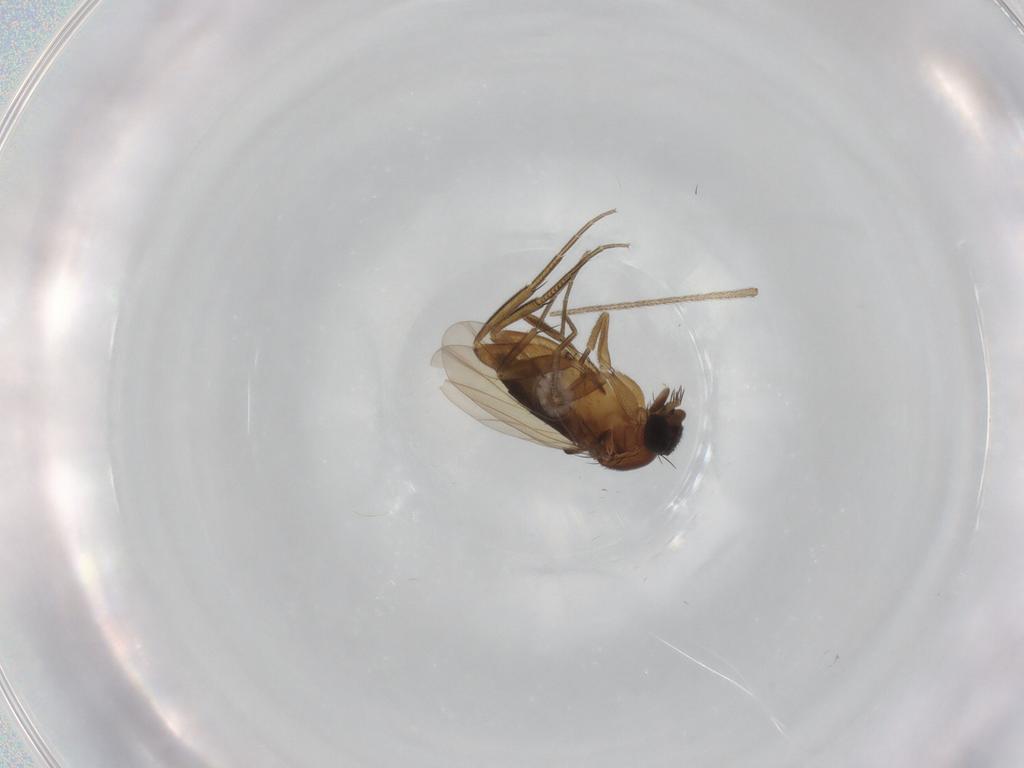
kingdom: Animalia
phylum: Arthropoda
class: Insecta
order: Diptera
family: Phoridae
